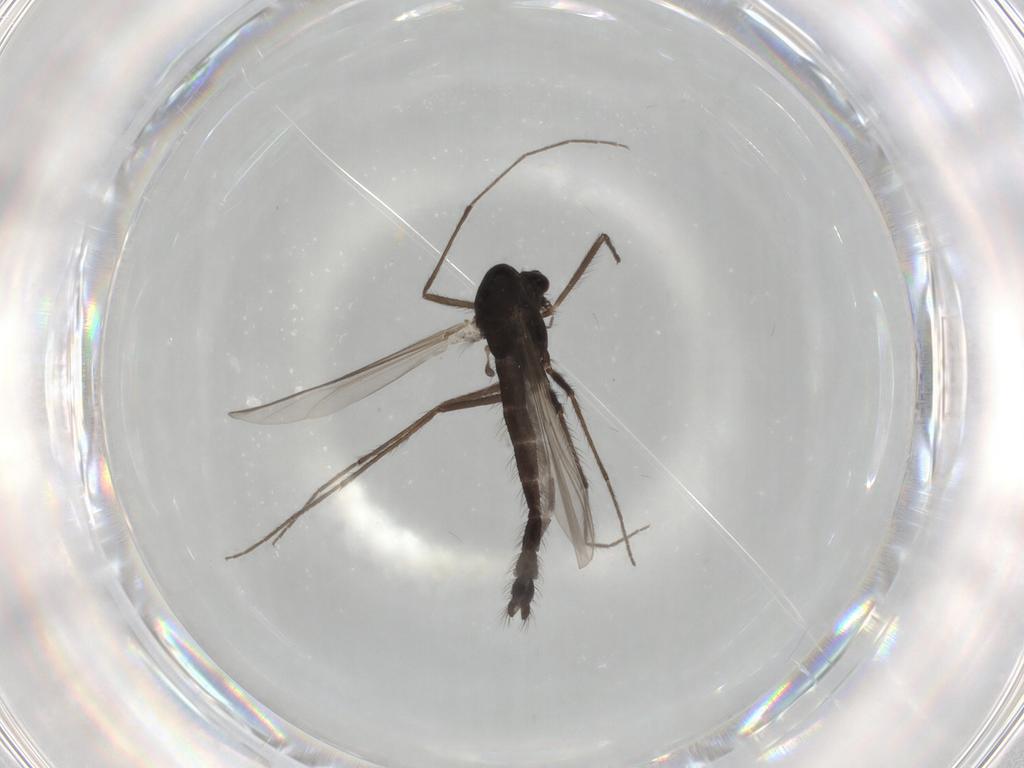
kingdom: Animalia
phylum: Arthropoda
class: Insecta
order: Diptera
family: Chironomidae
